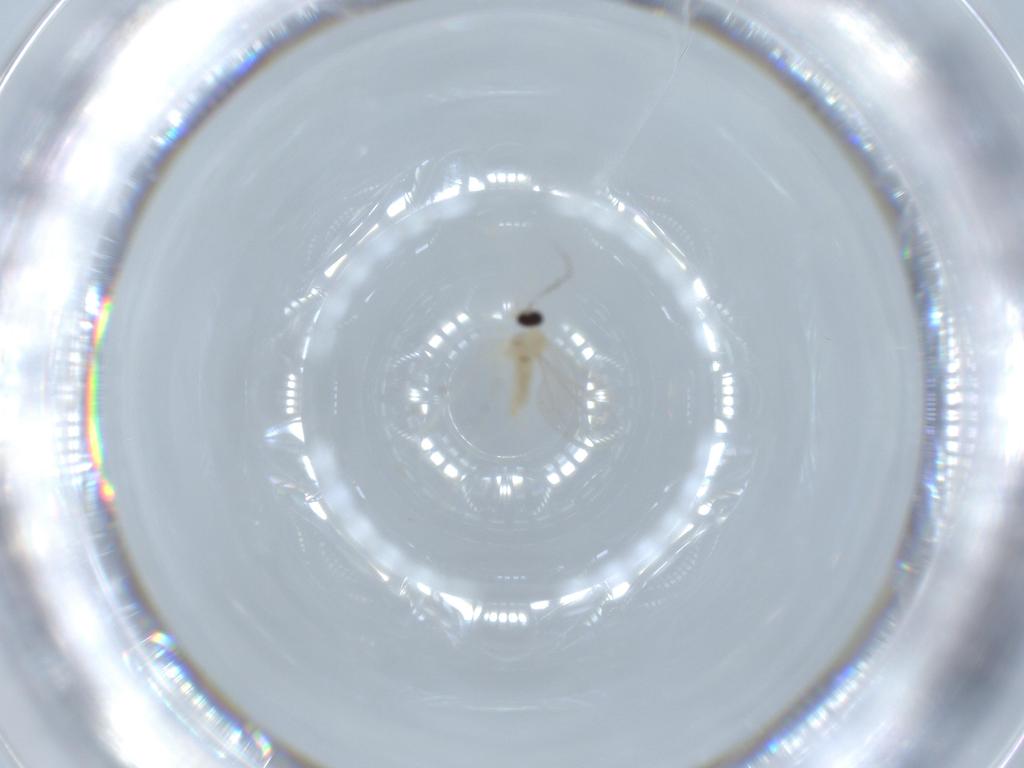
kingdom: Animalia
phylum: Arthropoda
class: Insecta
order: Diptera
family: Cecidomyiidae
